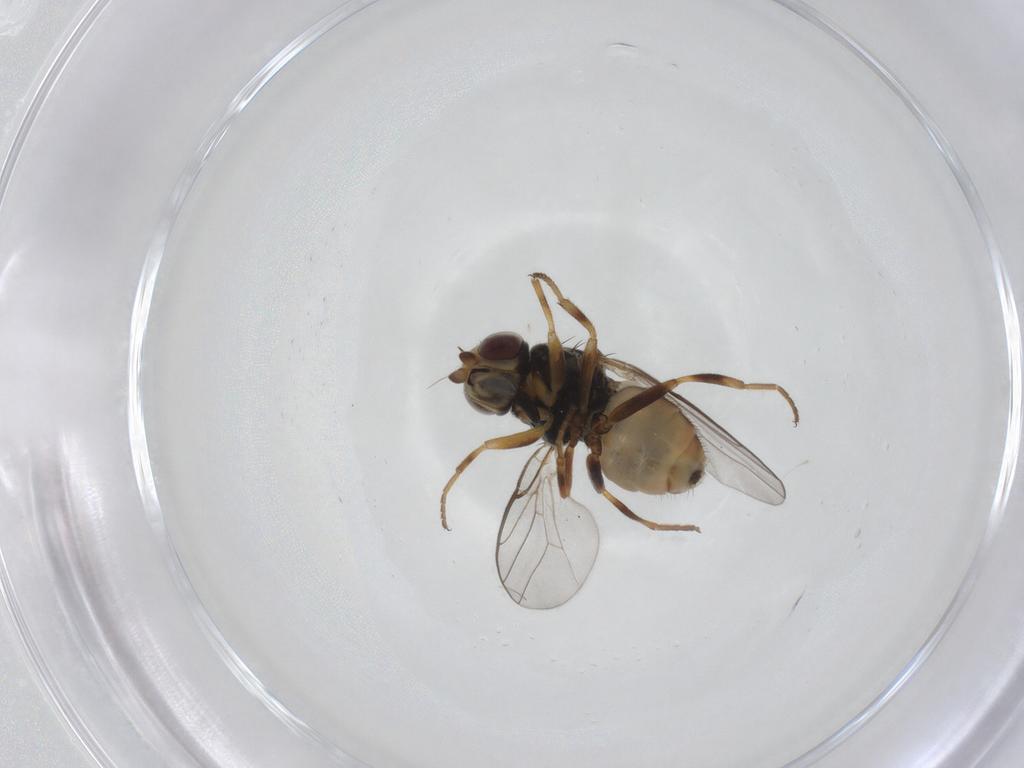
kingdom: Animalia
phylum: Arthropoda
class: Insecta
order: Diptera
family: Chloropidae
